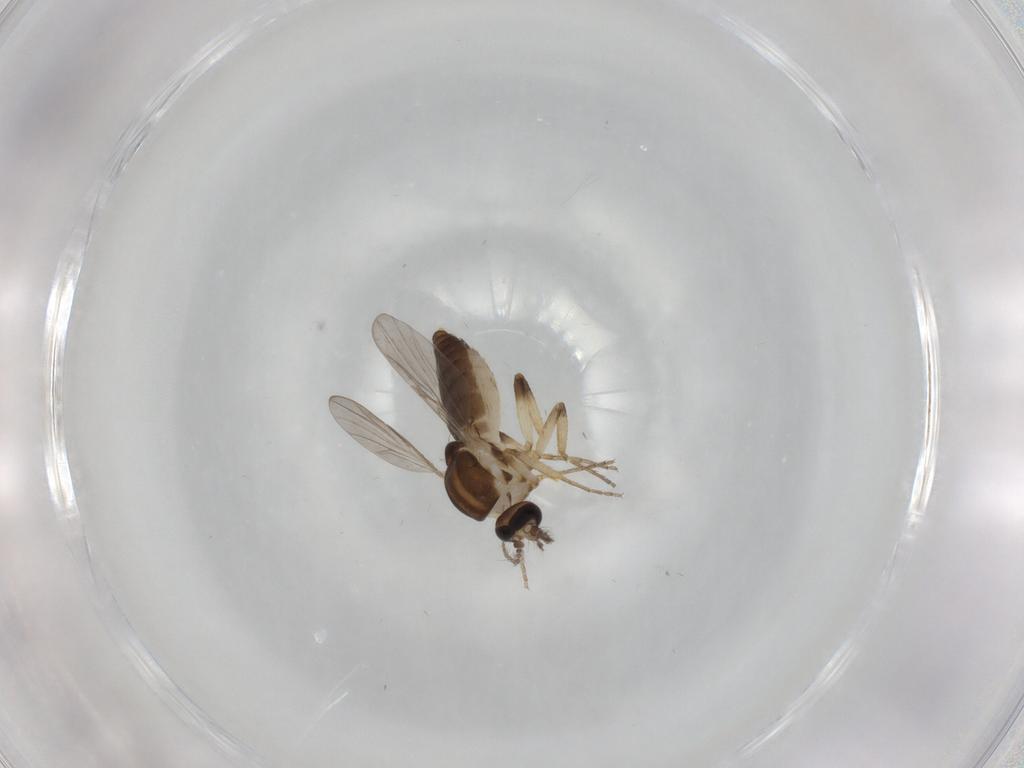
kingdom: Animalia
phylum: Arthropoda
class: Insecta
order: Diptera
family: Ceratopogonidae
